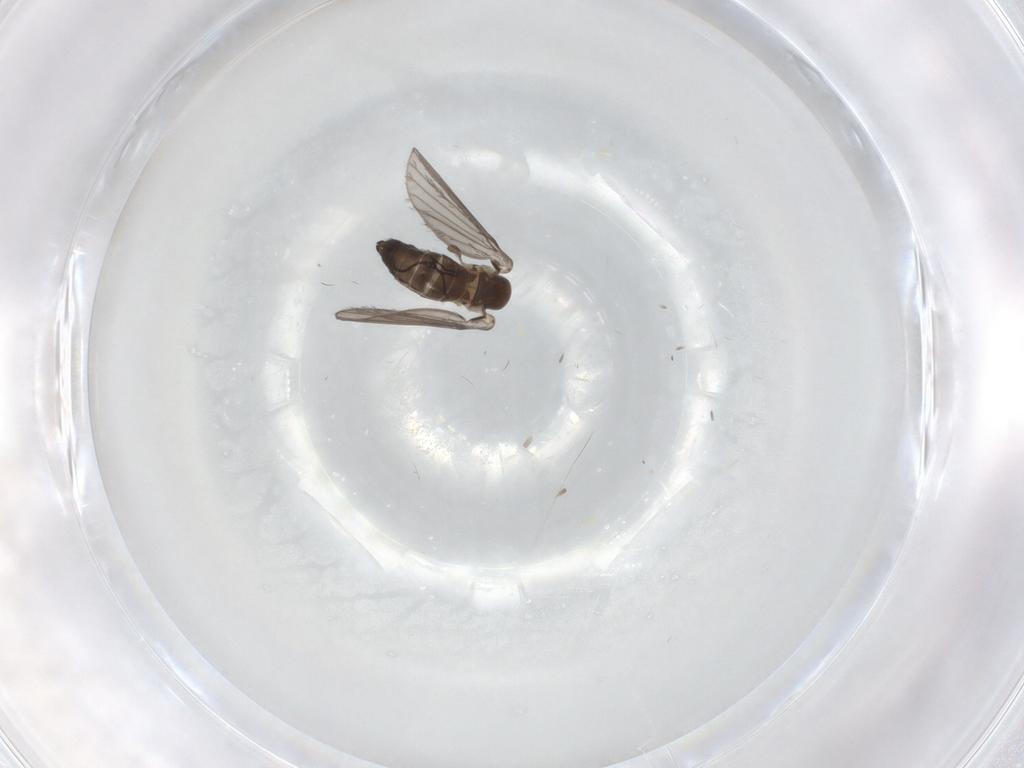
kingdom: Animalia
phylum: Arthropoda
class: Insecta
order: Diptera
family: Psychodidae
